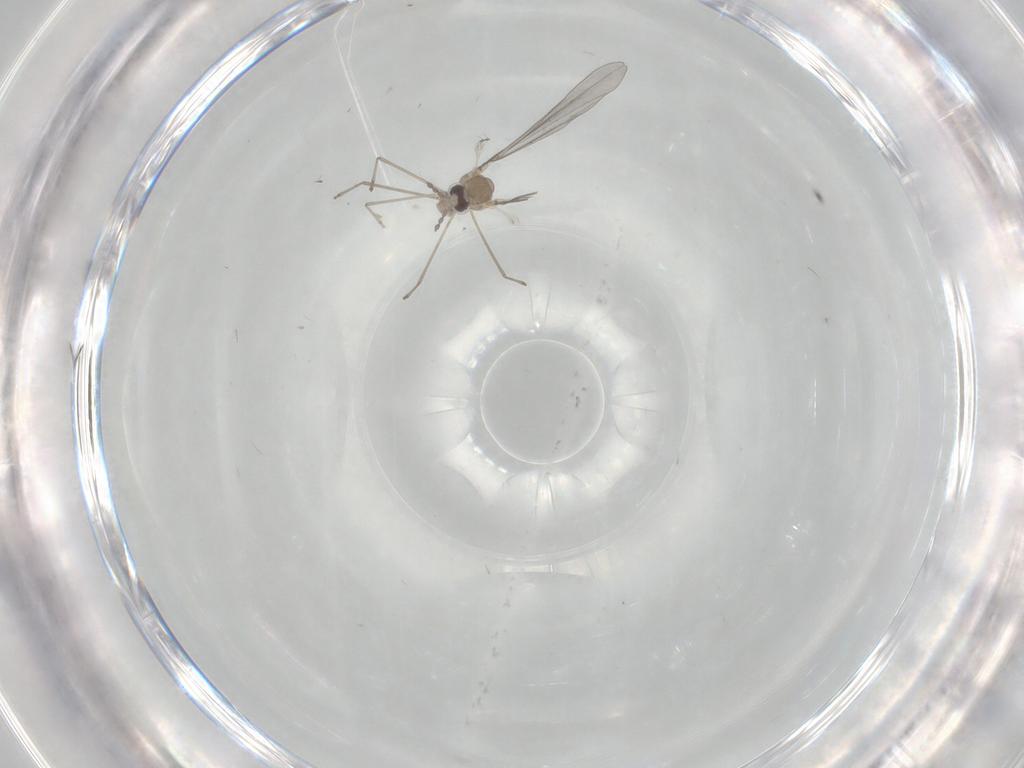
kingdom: Animalia
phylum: Arthropoda
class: Insecta
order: Diptera
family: Cecidomyiidae
